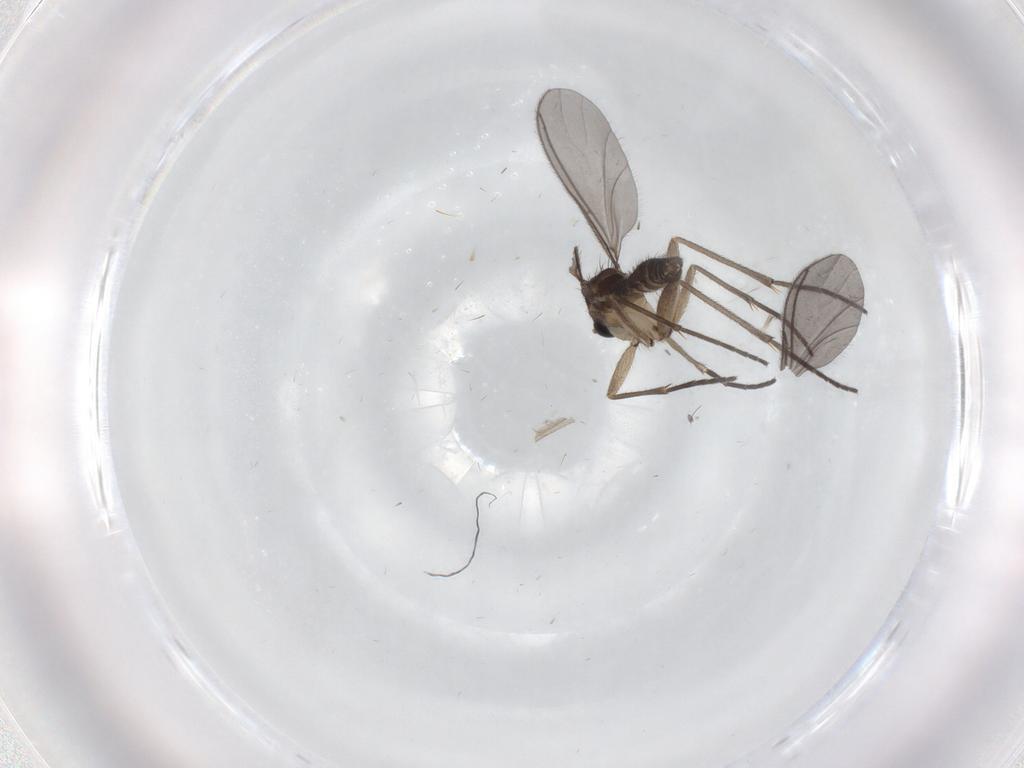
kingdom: Animalia
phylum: Arthropoda
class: Insecta
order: Diptera
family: Sciaridae
